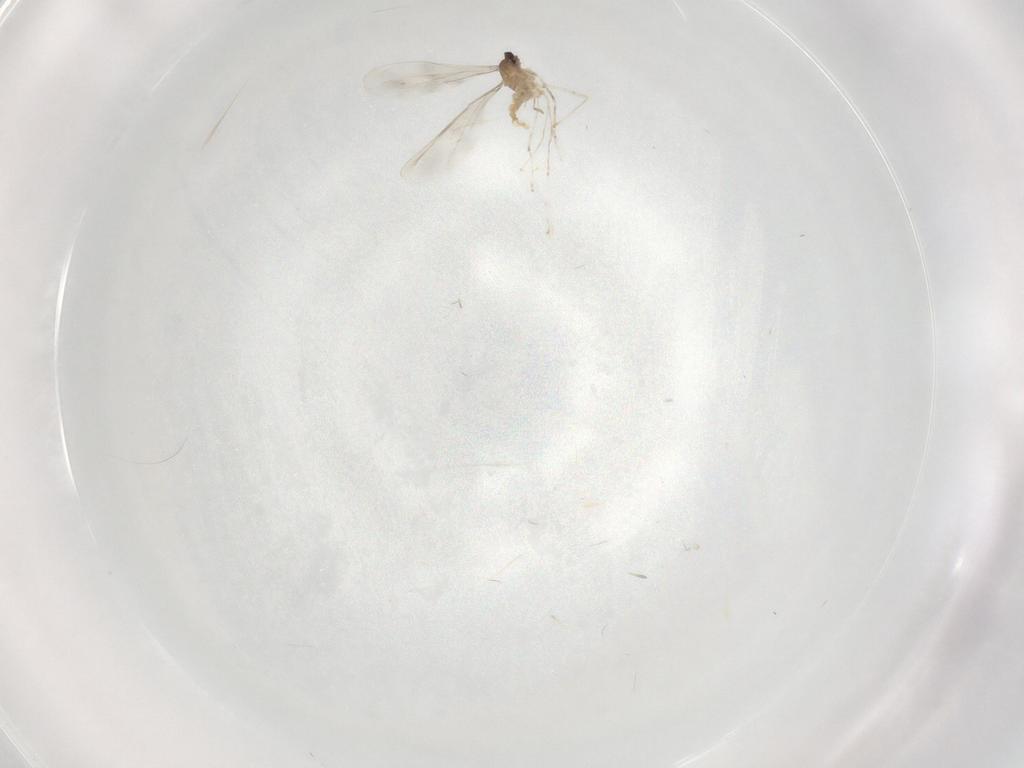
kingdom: Animalia
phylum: Arthropoda
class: Insecta
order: Diptera
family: Cecidomyiidae
